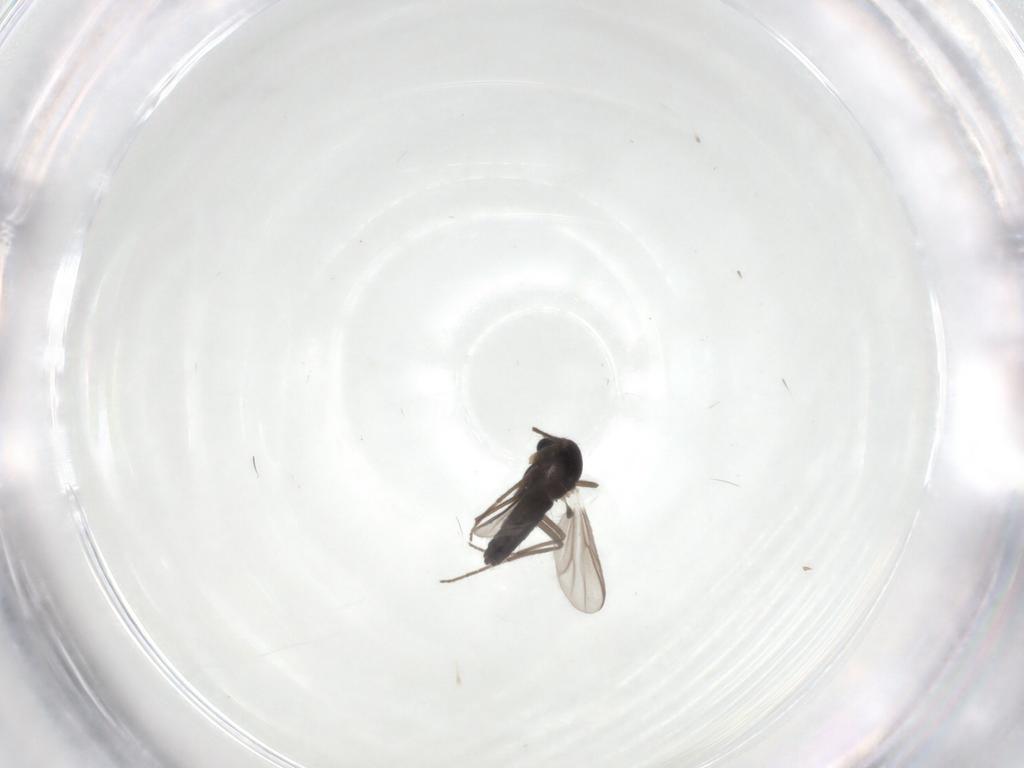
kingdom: Animalia
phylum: Arthropoda
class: Insecta
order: Diptera
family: Chironomidae
